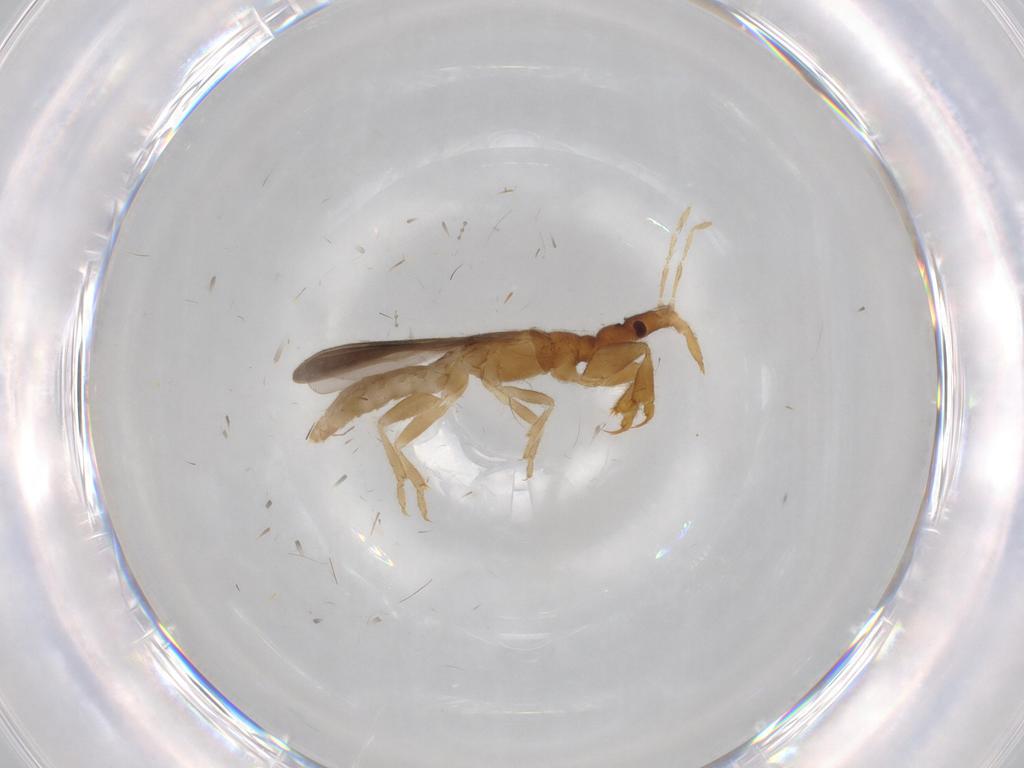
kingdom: Animalia
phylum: Arthropoda
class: Insecta
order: Hemiptera
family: Enicocephalidae
